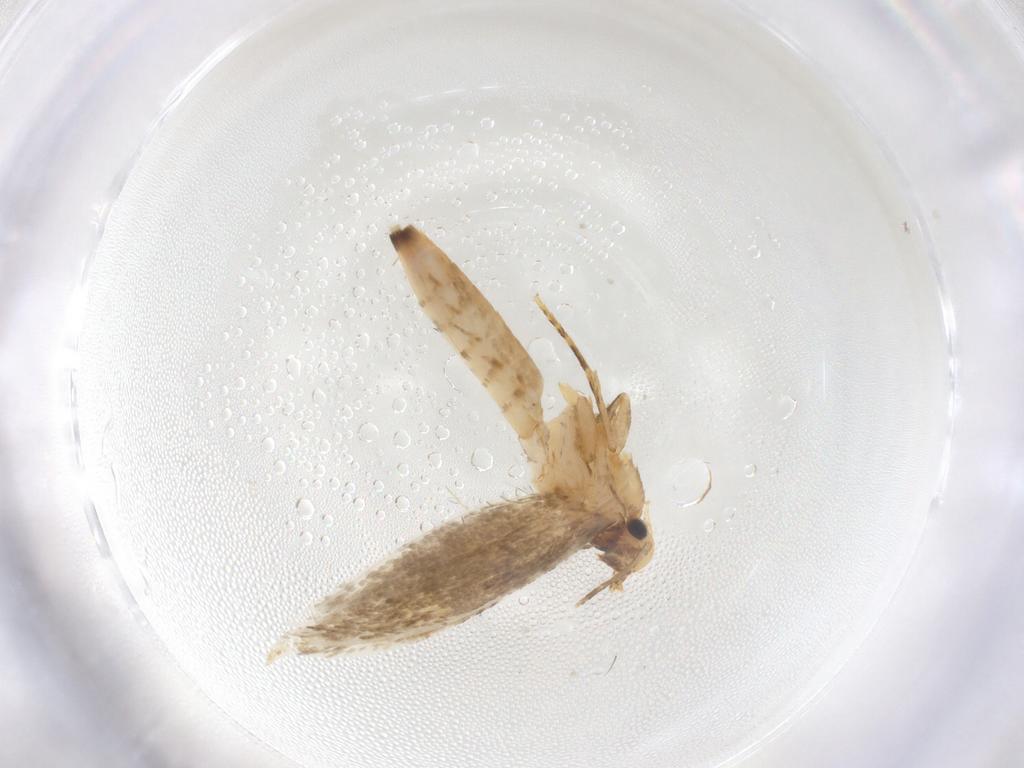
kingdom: Animalia
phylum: Arthropoda
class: Insecta
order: Lepidoptera
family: Tineidae
